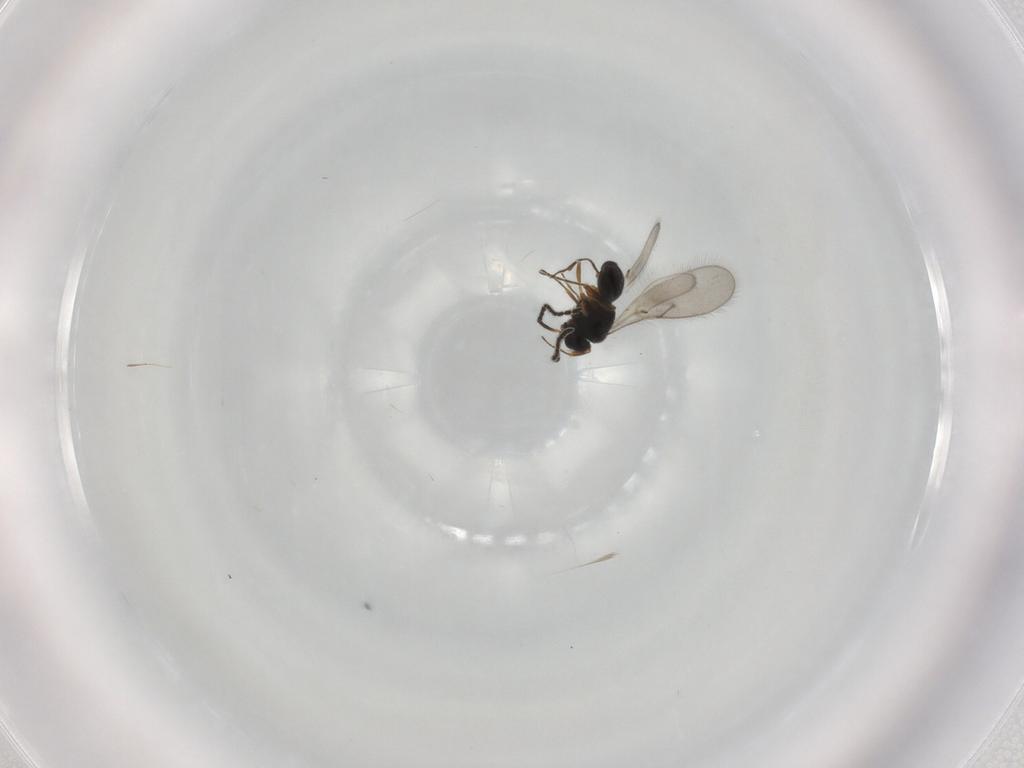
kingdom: Animalia
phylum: Arthropoda
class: Insecta
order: Hymenoptera
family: Scelionidae
